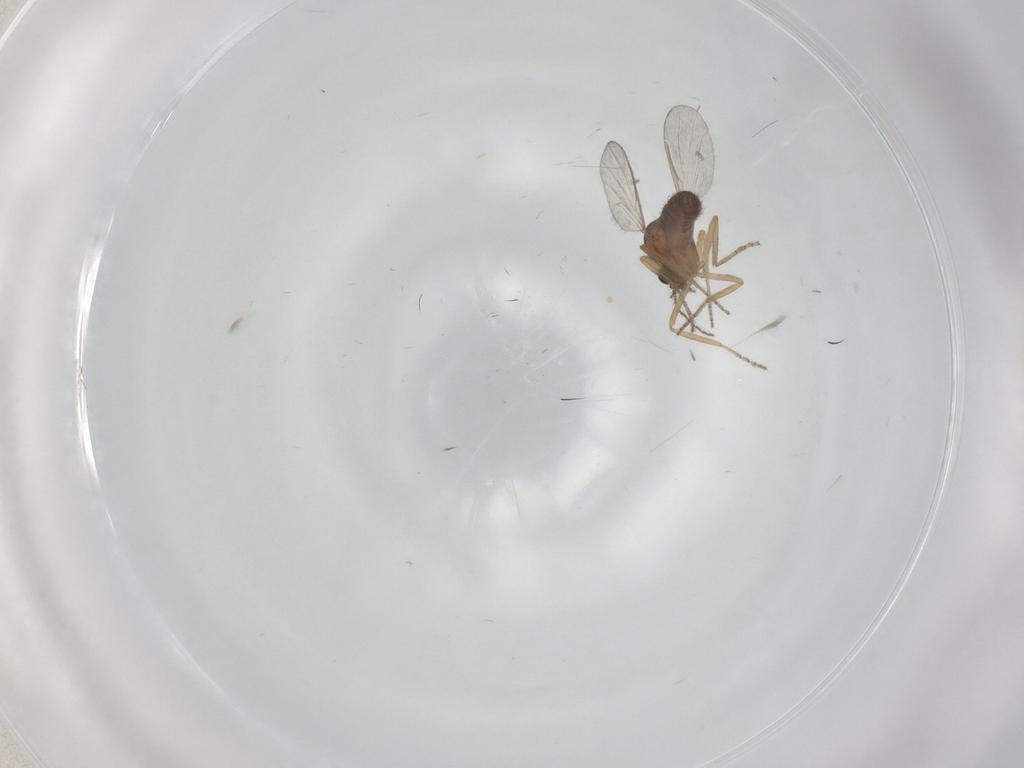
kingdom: Animalia
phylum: Arthropoda
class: Insecta
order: Diptera
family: Ceratopogonidae
